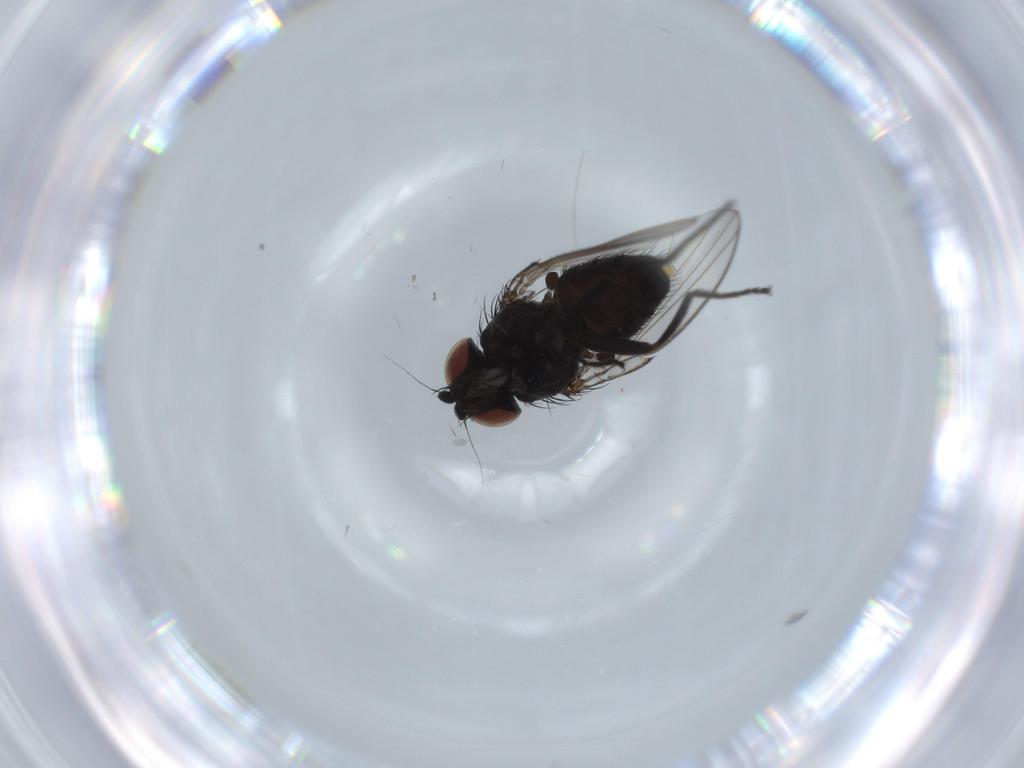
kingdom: Animalia
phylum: Arthropoda
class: Insecta
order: Diptera
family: Milichiidae
